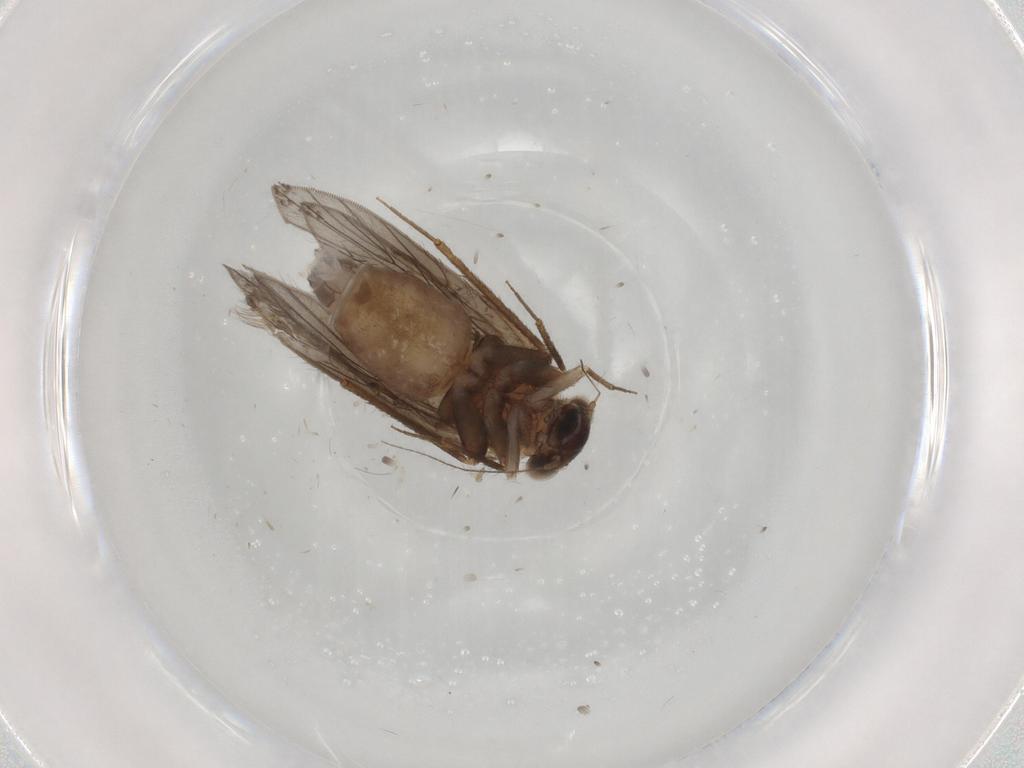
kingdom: Animalia
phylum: Arthropoda
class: Insecta
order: Psocodea
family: Lepidopsocidae
